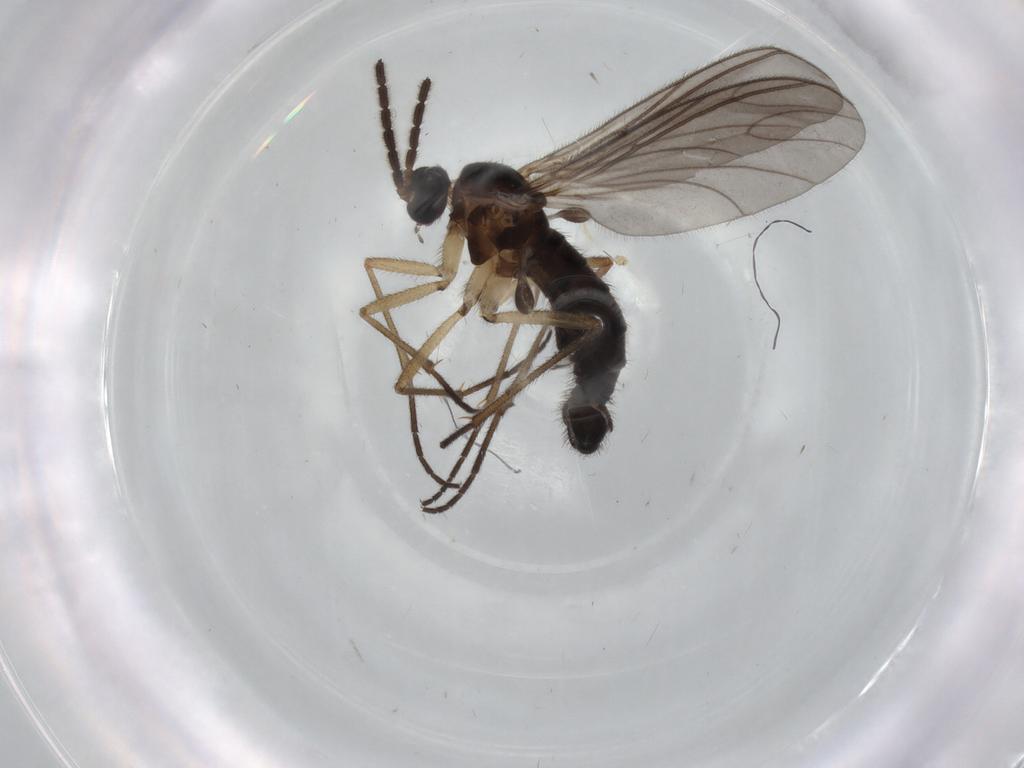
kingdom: Animalia
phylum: Arthropoda
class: Insecta
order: Diptera
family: Sciaridae
